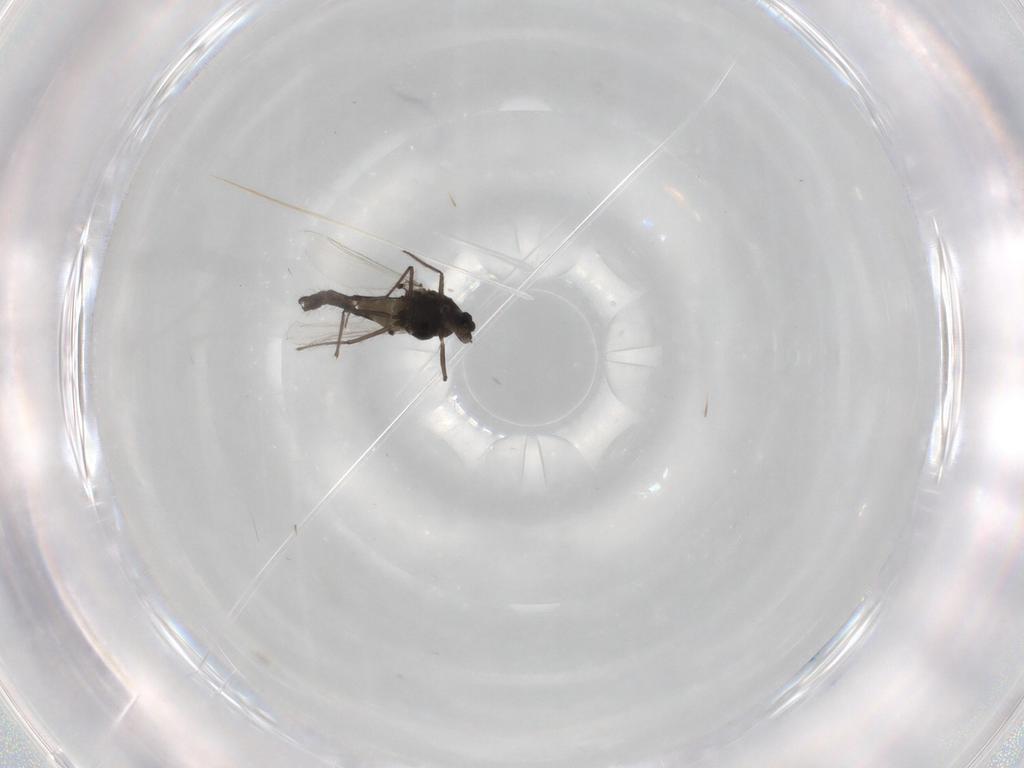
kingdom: Animalia
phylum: Arthropoda
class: Insecta
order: Diptera
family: Chironomidae
